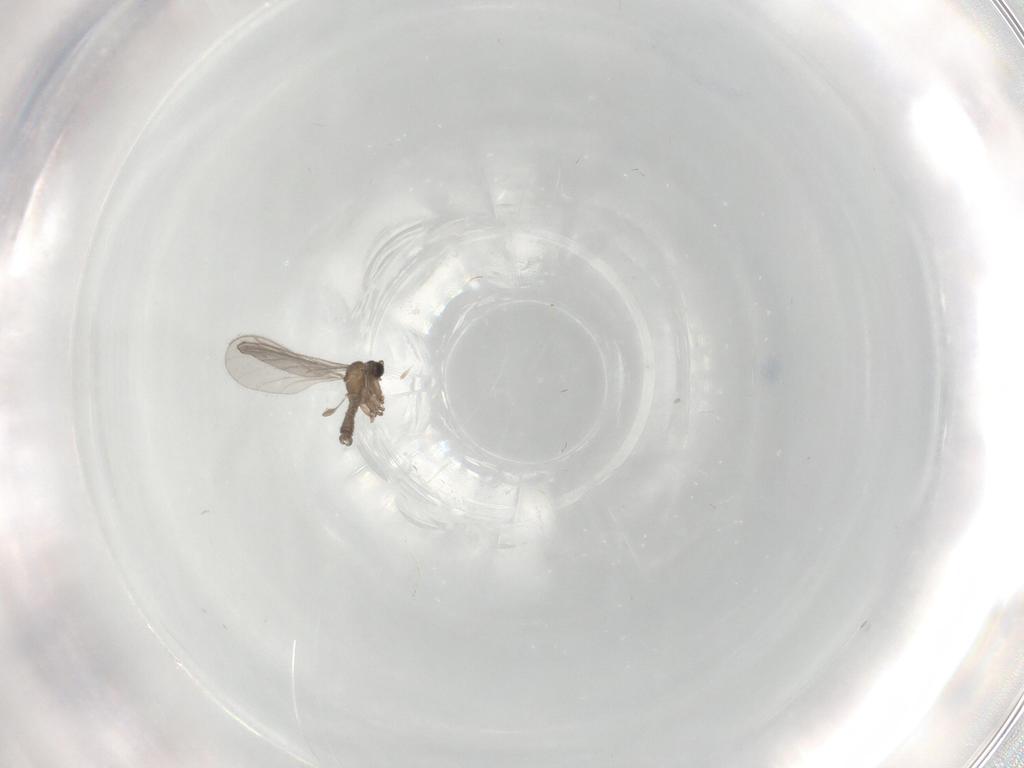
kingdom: Animalia
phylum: Arthropoda
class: Insecta
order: Diptera
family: Sciaridae
